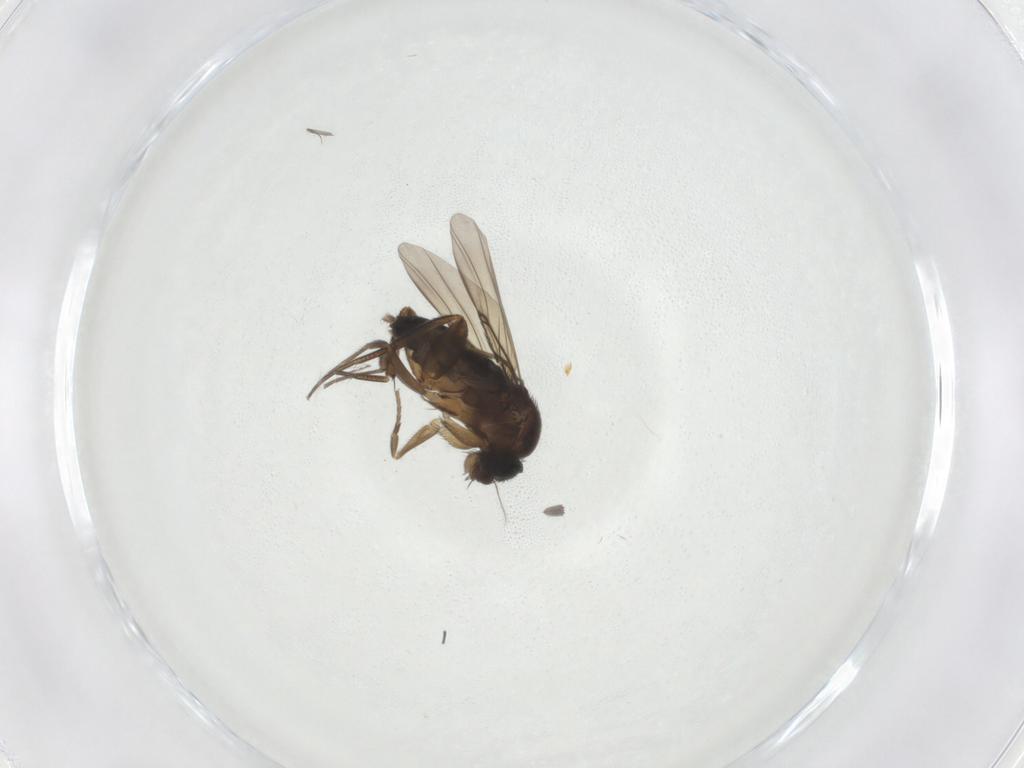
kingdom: Animalia
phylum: Arthropoda
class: Insecta
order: Diptera
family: Phoridae
